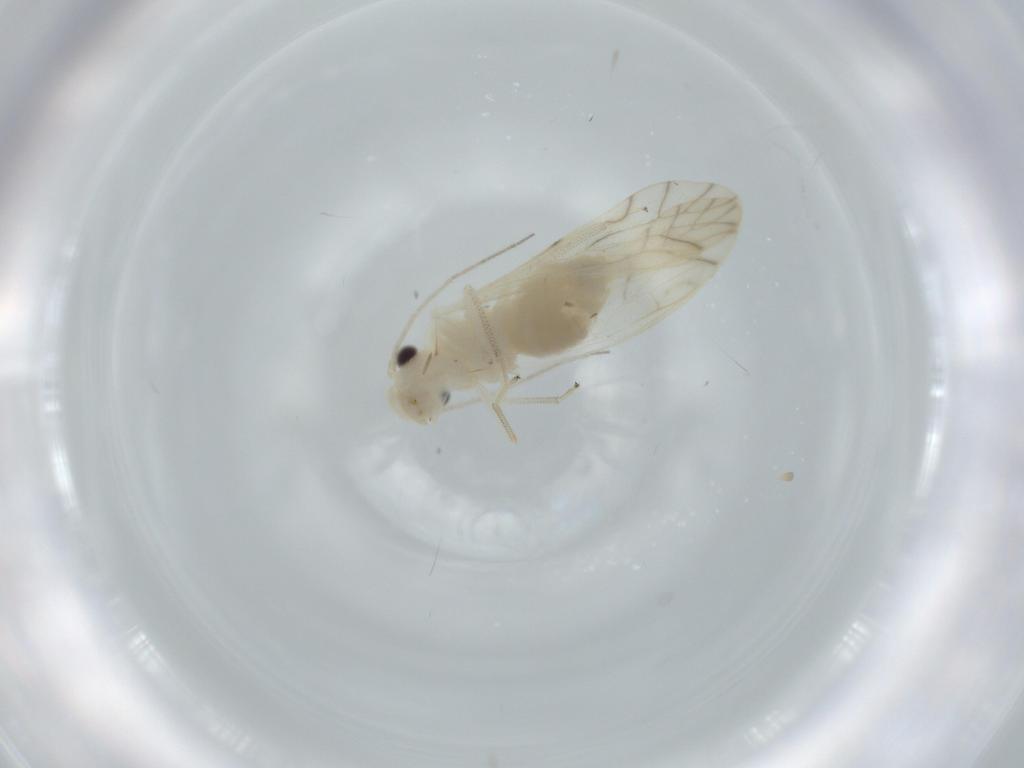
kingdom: Animalia
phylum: Arthropoda
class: Insecta
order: Psocodea
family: Caeciliusidae
